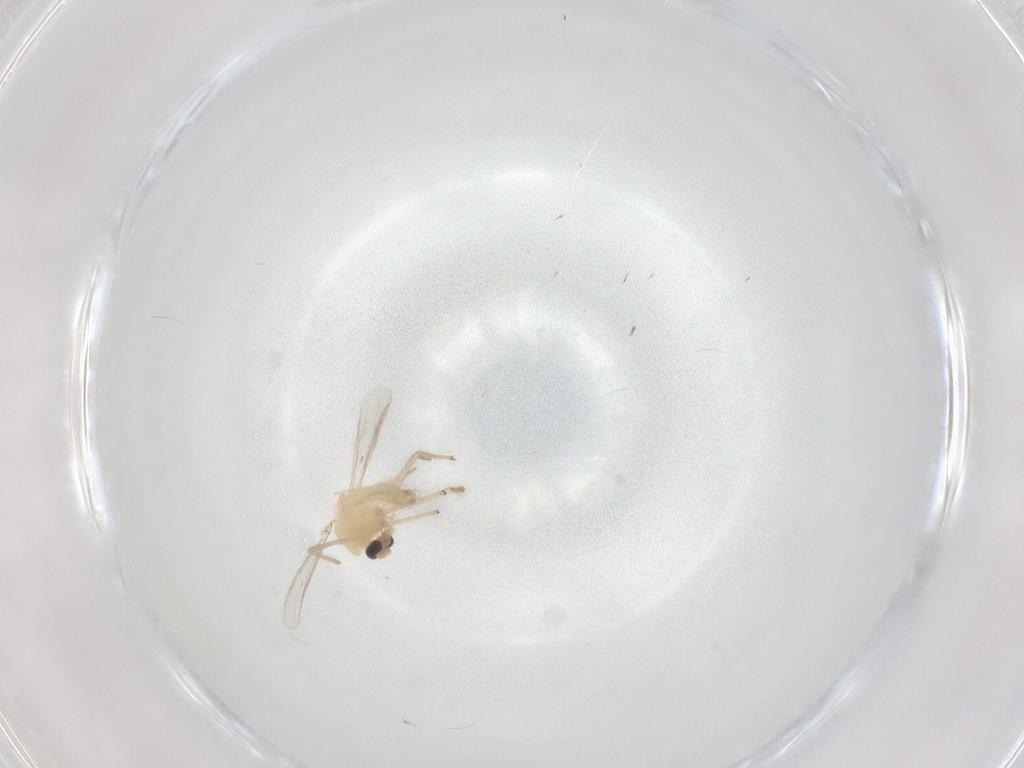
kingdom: Animalia
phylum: Arthropoda
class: Insecta
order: Diptera
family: Chironomidae
